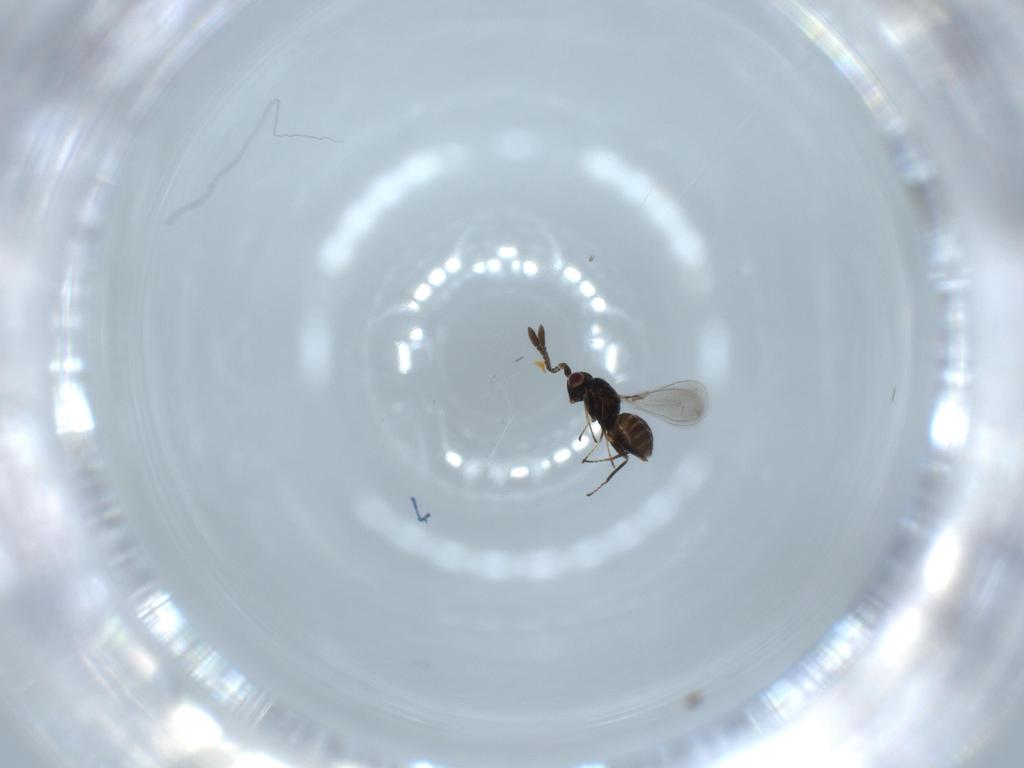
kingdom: Animalia
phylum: Arthropoda
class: Insecta
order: Hymenoptera
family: Mymaridae
